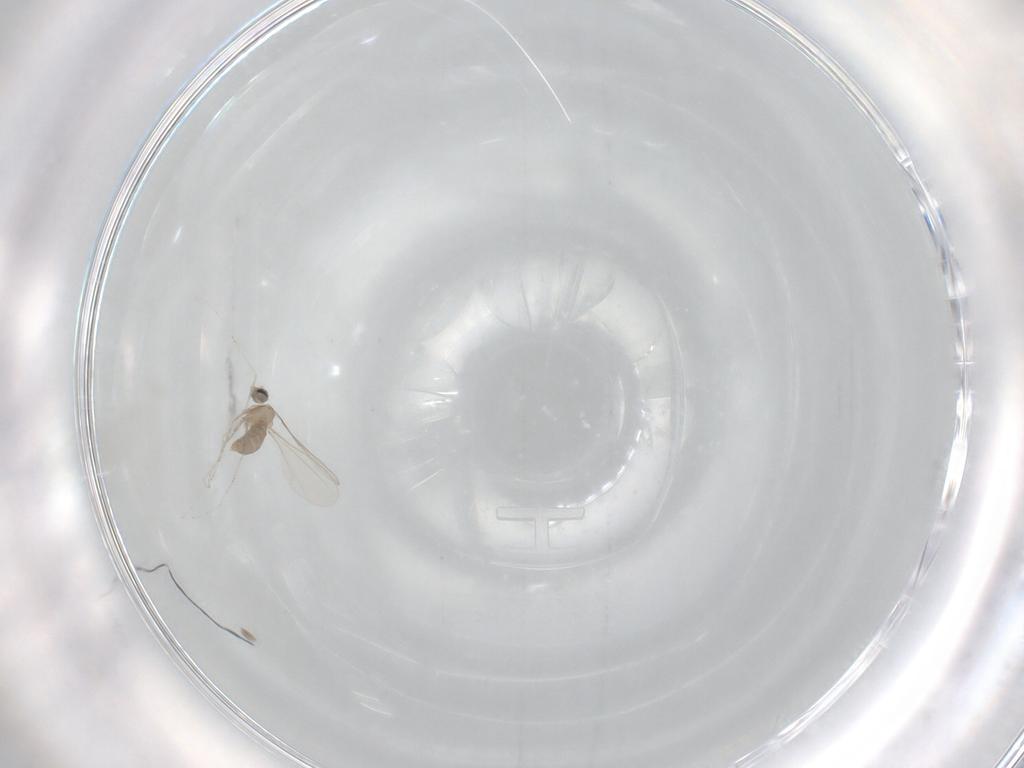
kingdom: Animalia
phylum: Arthropoda
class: Insecta
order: Diptera
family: Cecidomyiidae
